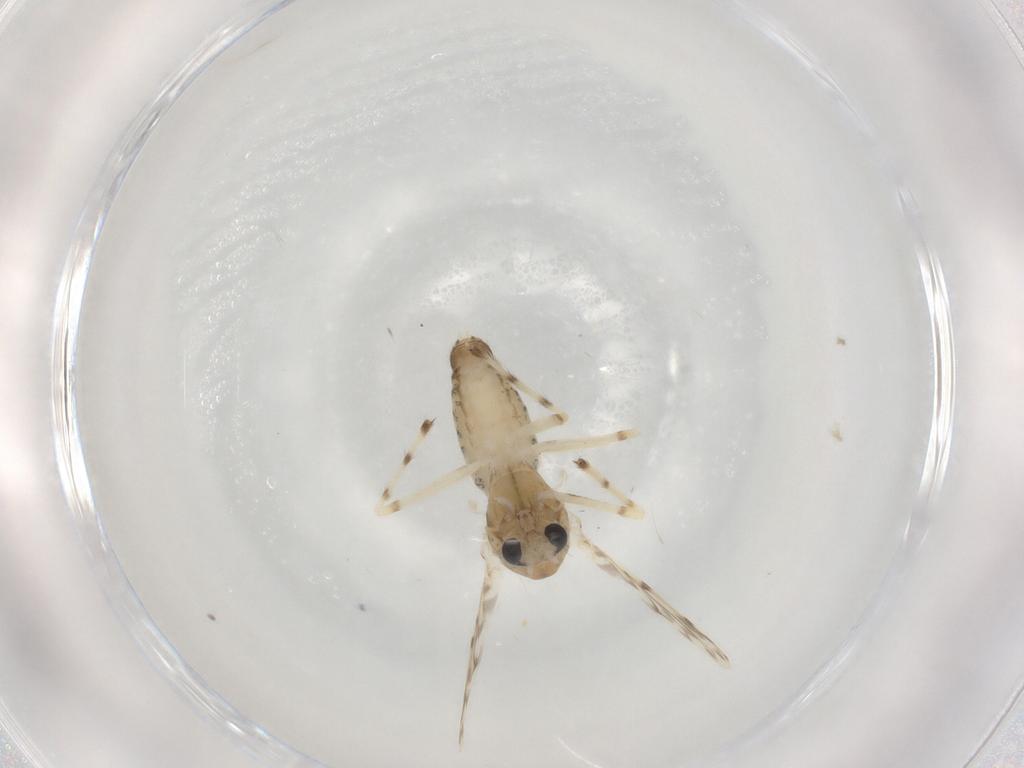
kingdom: Animalia
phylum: Arthropoda
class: Insecta
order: Diptera
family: Chironomidae
